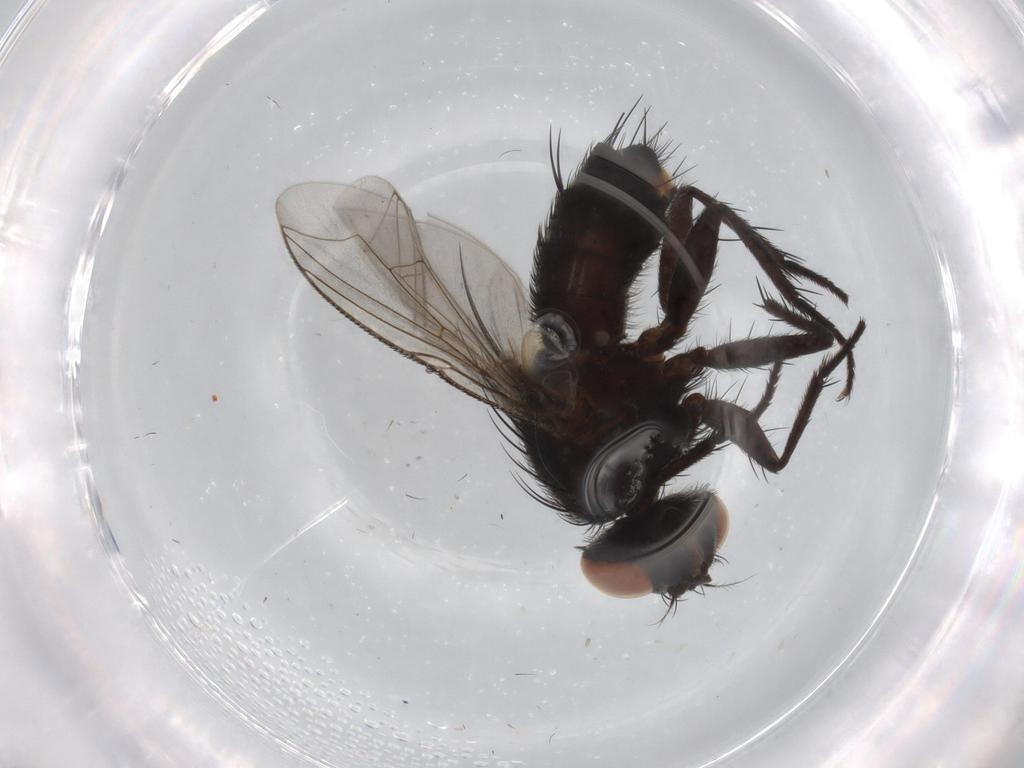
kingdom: Animalia
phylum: Arthropoda
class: Insecta
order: Diptera
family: Sarcophagidae
